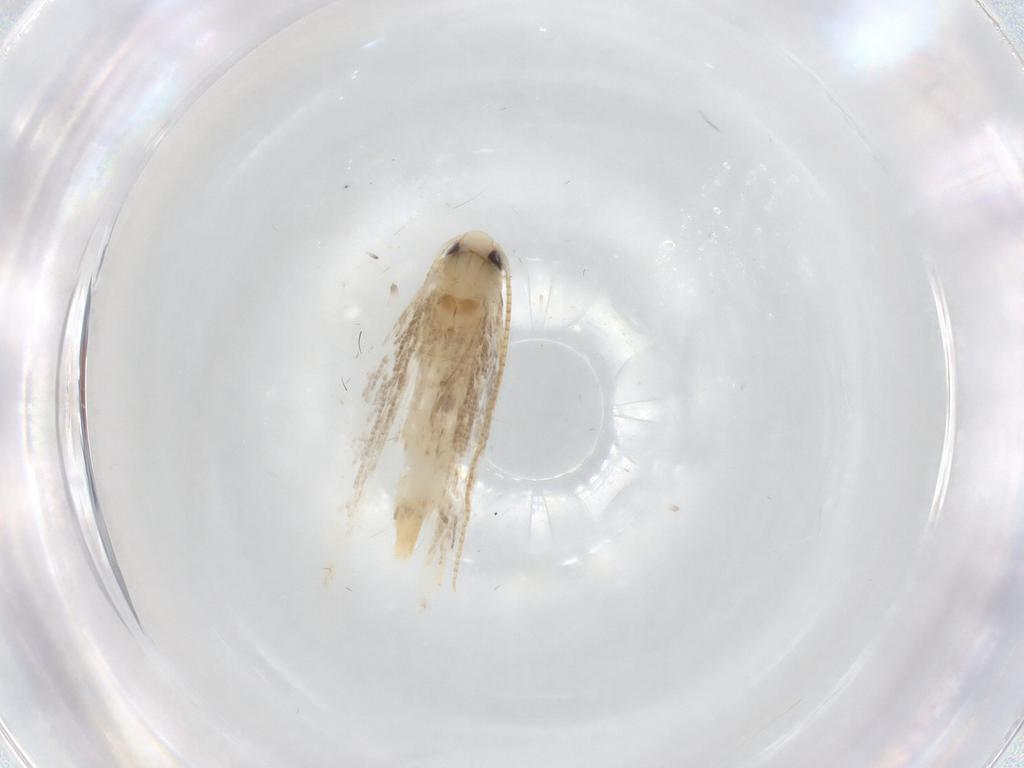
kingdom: Animalia
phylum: Arthropoda
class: Insecta
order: Lepidoptera
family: Gracillariidae
